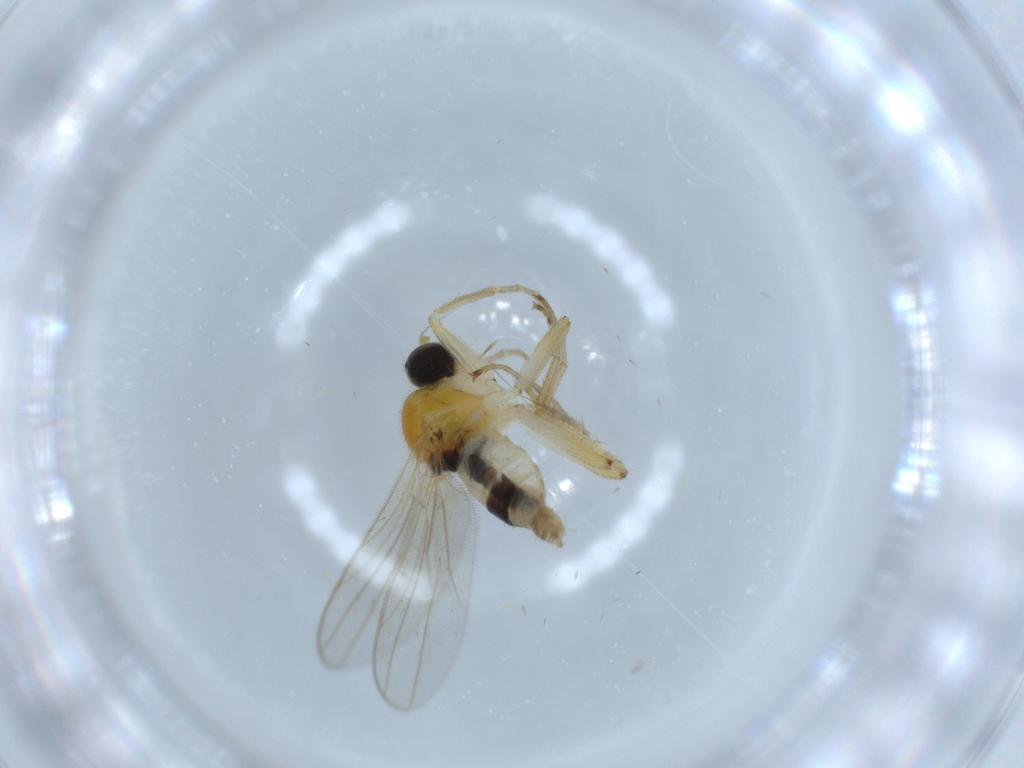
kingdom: Animalia
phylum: Arthropoda
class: Insecta
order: Diptera
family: Hybotidae
